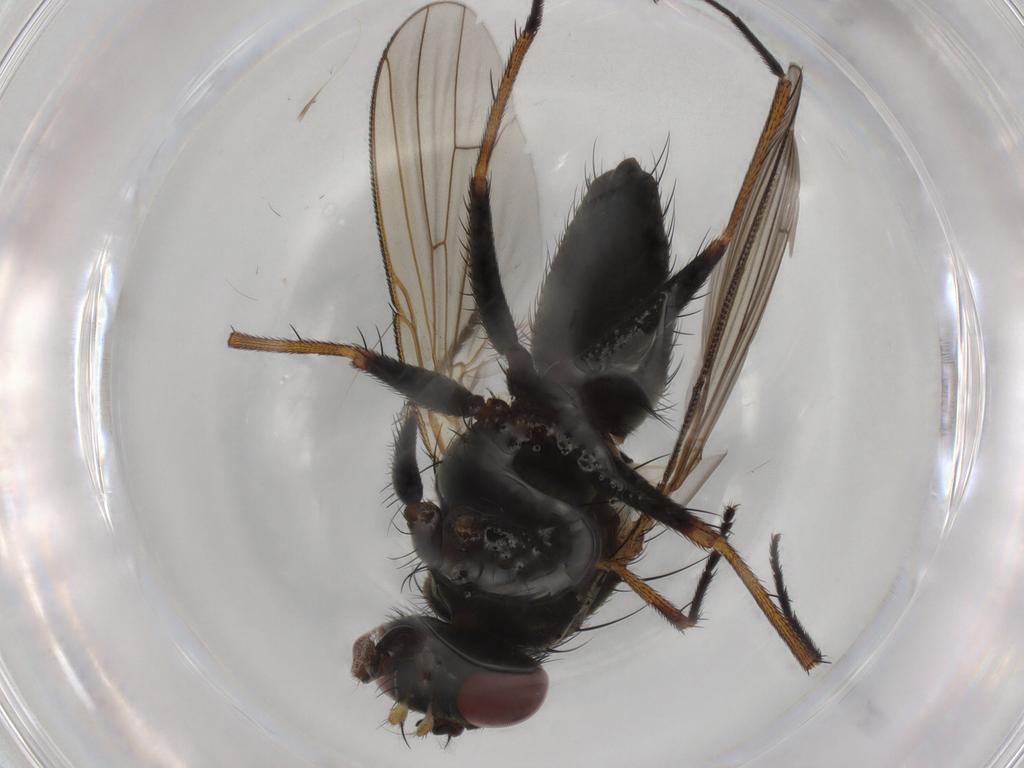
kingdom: Animalia
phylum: Arthropoda
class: Insecta
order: Diptera
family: Muscidae
